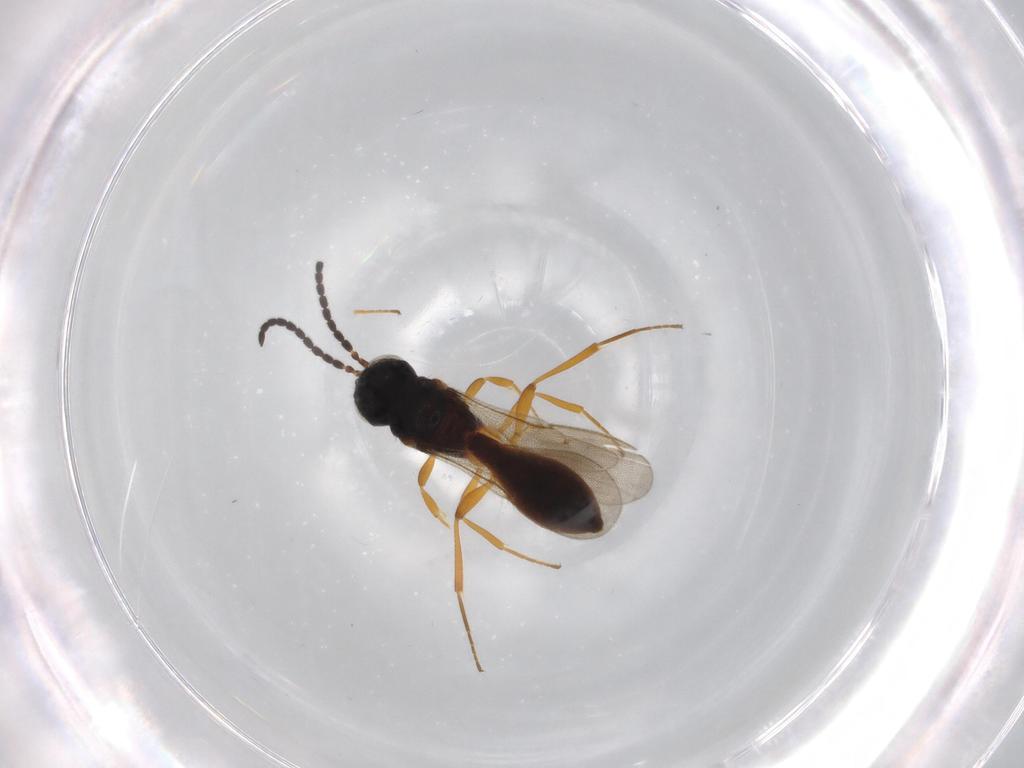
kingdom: Animalia
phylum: Arthropoda
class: Insecta
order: Hymenoptera
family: Scelionidae
